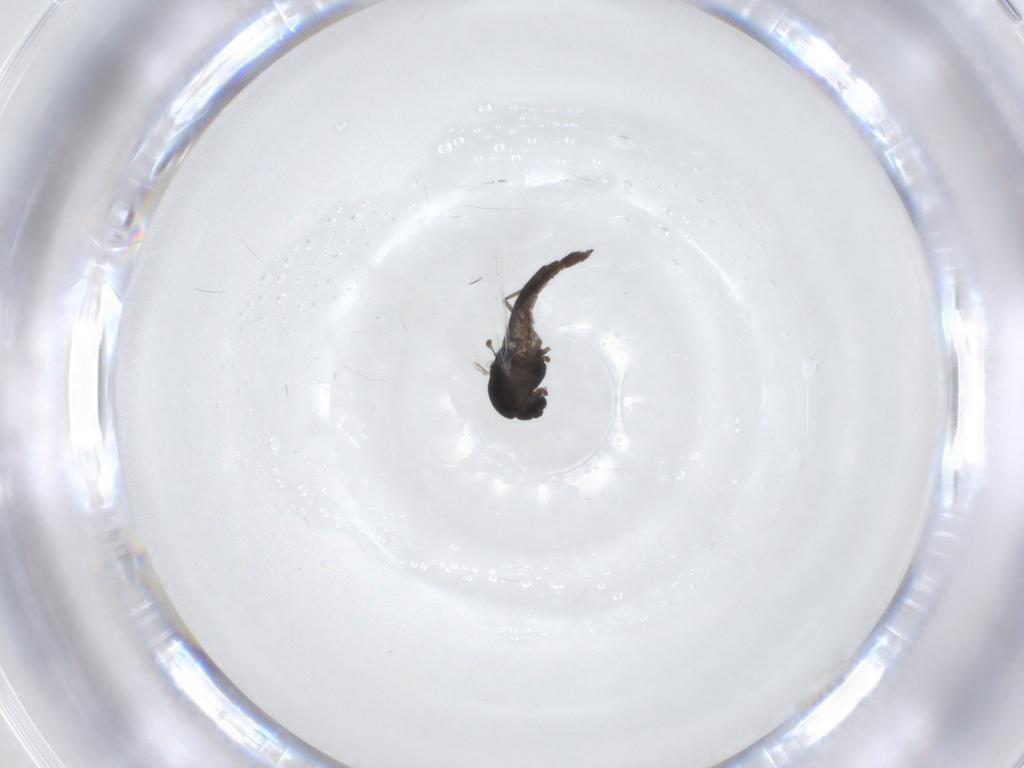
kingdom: Animalia
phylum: Arthropoda
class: Insecta
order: Diptera
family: Chironomidae
